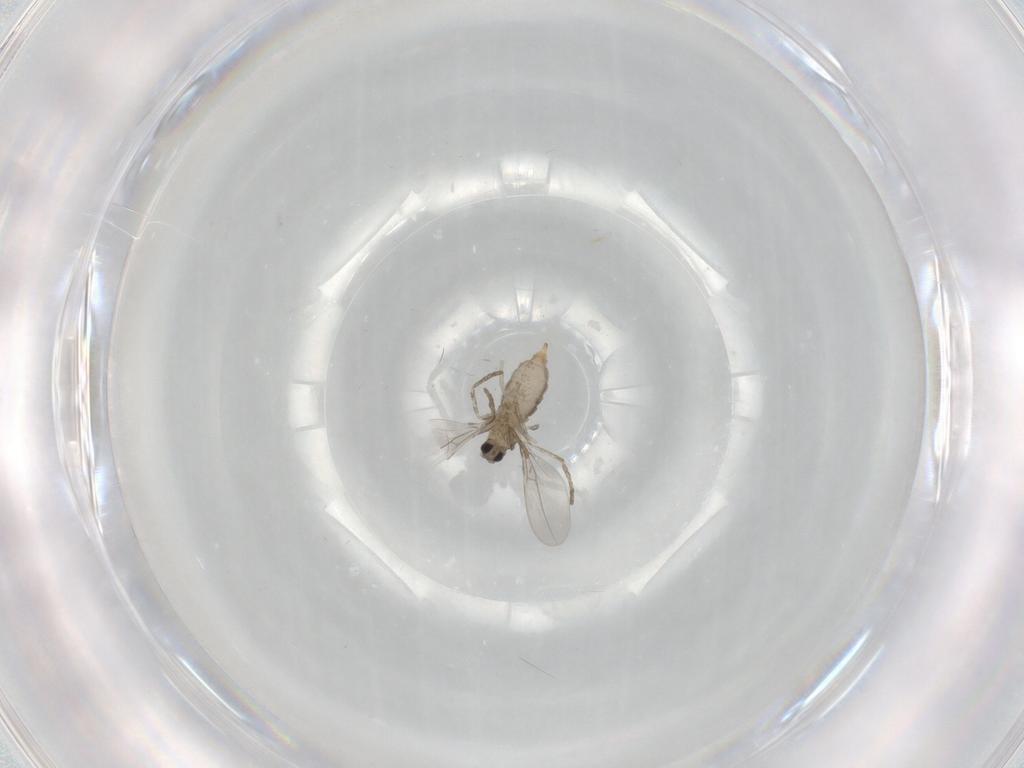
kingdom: Animalia
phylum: Arthropoda
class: Insecta
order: Diptera
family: Cecidomyiidae
